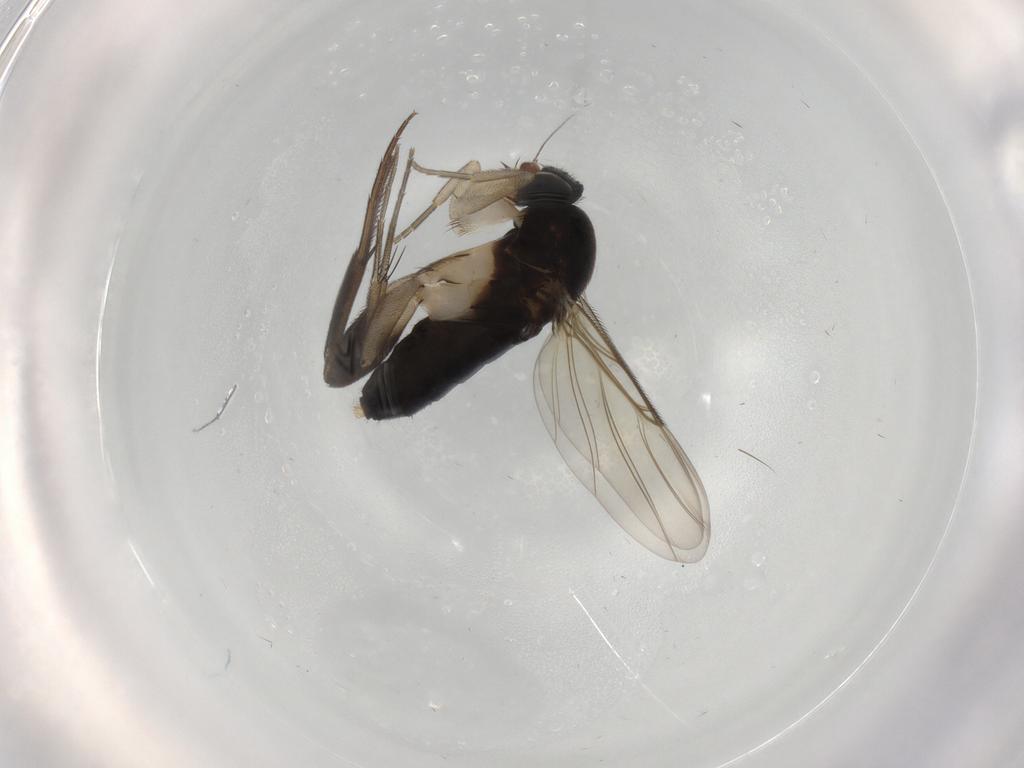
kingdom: Animalia
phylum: Arthropoda
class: Insecta
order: Diptera
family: Phoridae
